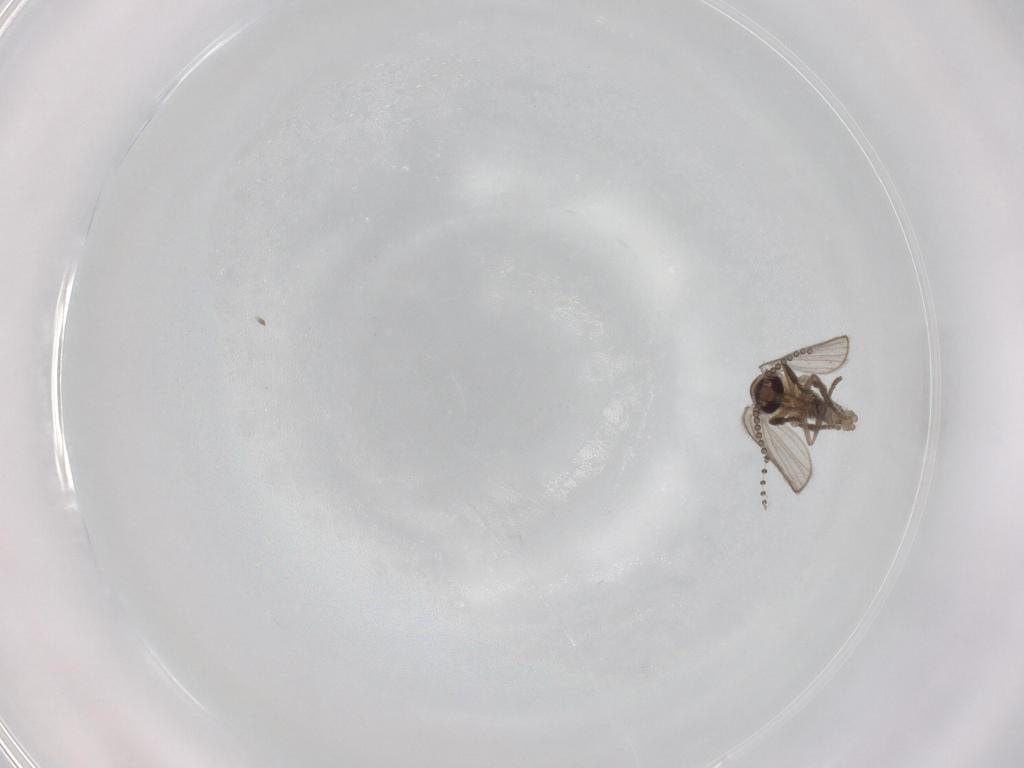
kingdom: Animalia
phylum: Arthropoda
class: Insecta
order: Diptera
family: Psychodidae
